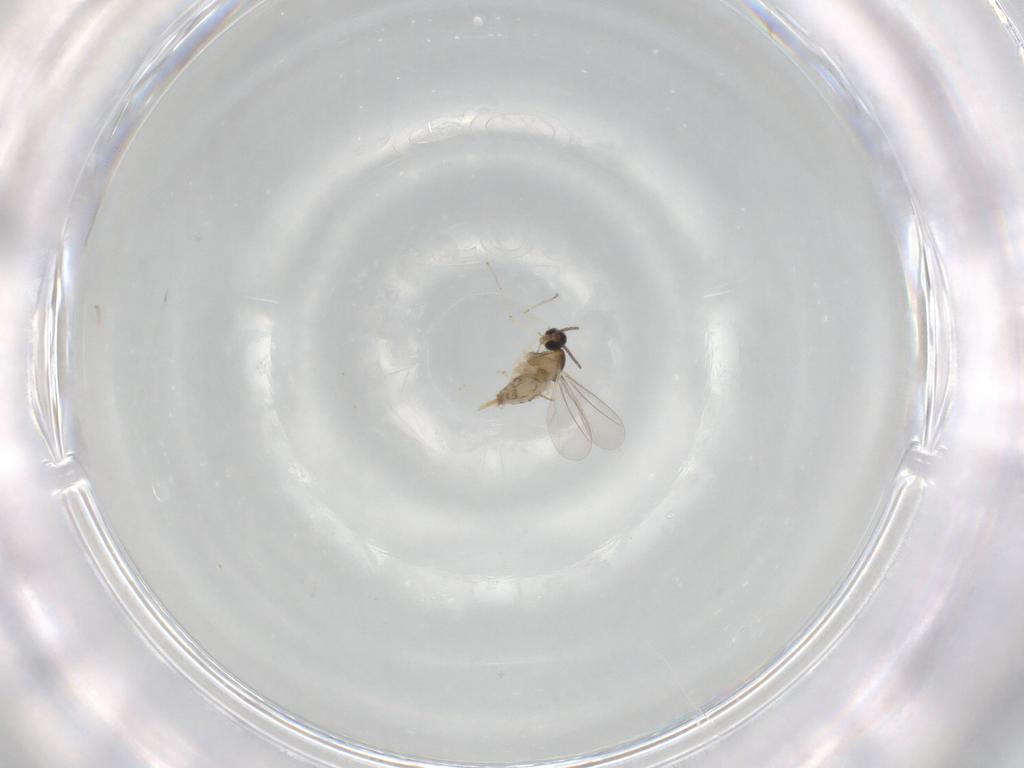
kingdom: Animalia
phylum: Arthropoda
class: Insecta
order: Diptera
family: Cecidomyiidae
